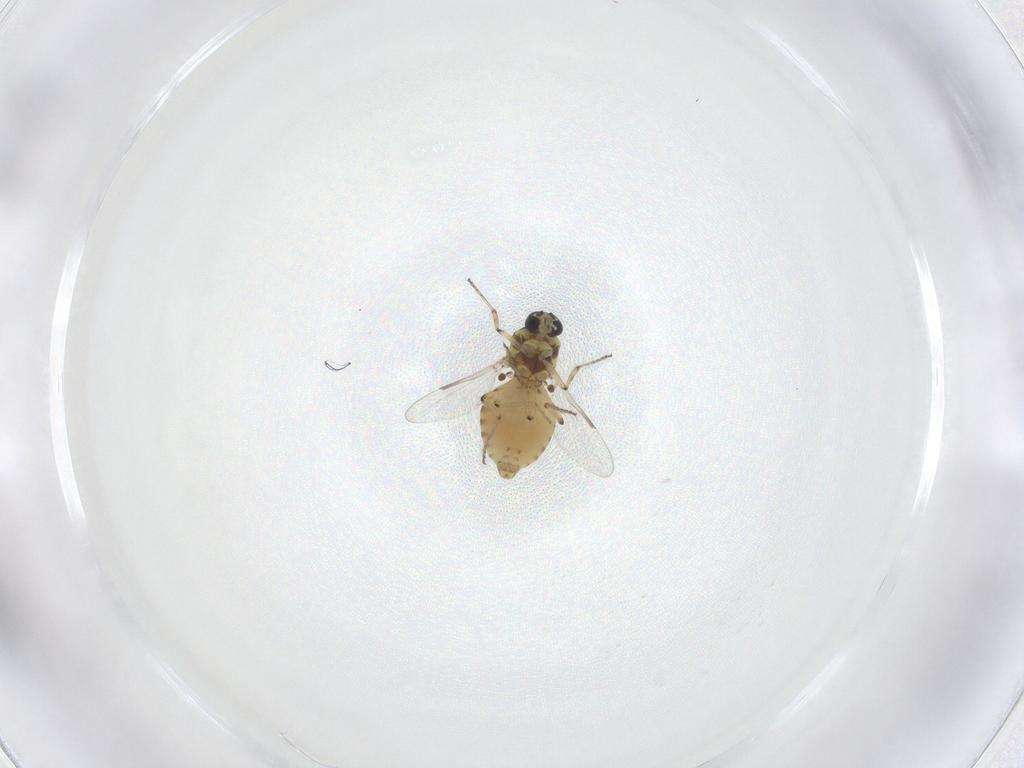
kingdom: Animalia
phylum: Arthropoda
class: Insecta
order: Diptera
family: Ceratopogonidae
